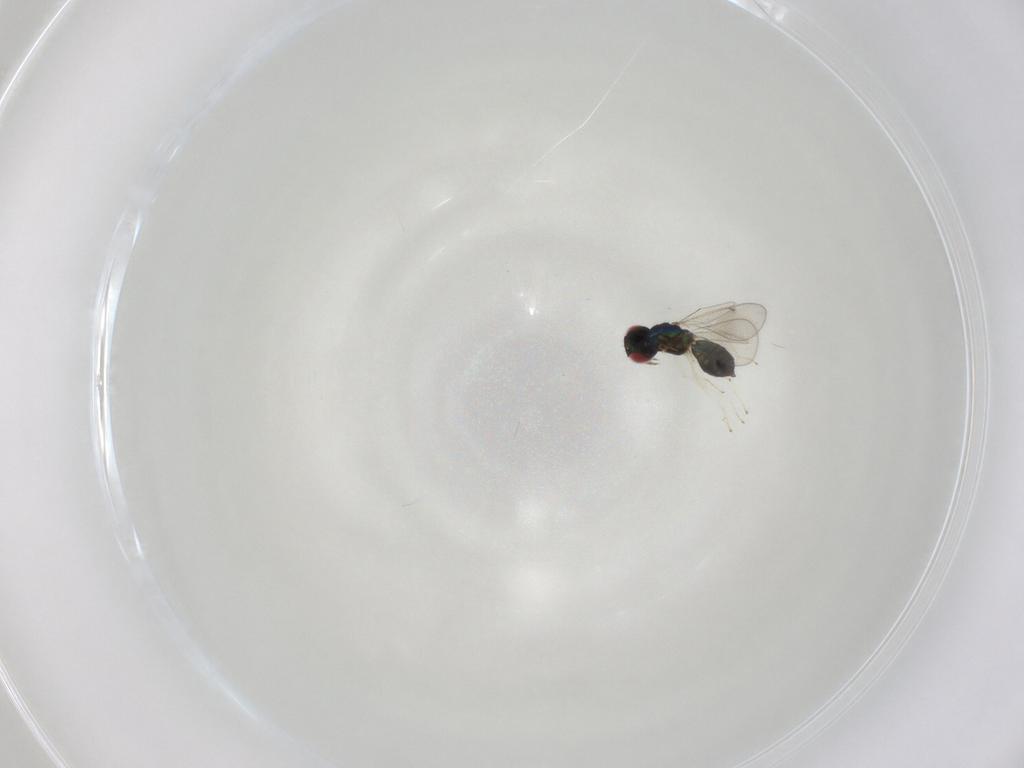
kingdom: Animalia
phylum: Arthropoda
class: Insecta
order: Hymenoptera
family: Eulophidae
